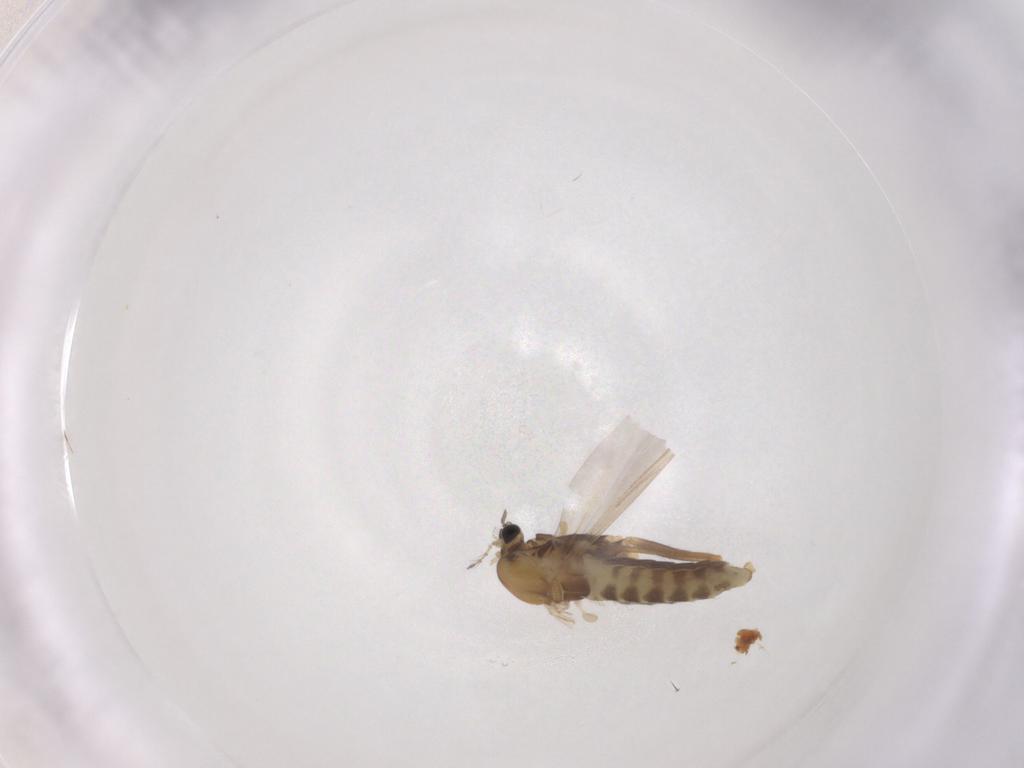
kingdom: Animalia
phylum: Arthropoda
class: Insecta
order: Diptera
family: Chironomidae
